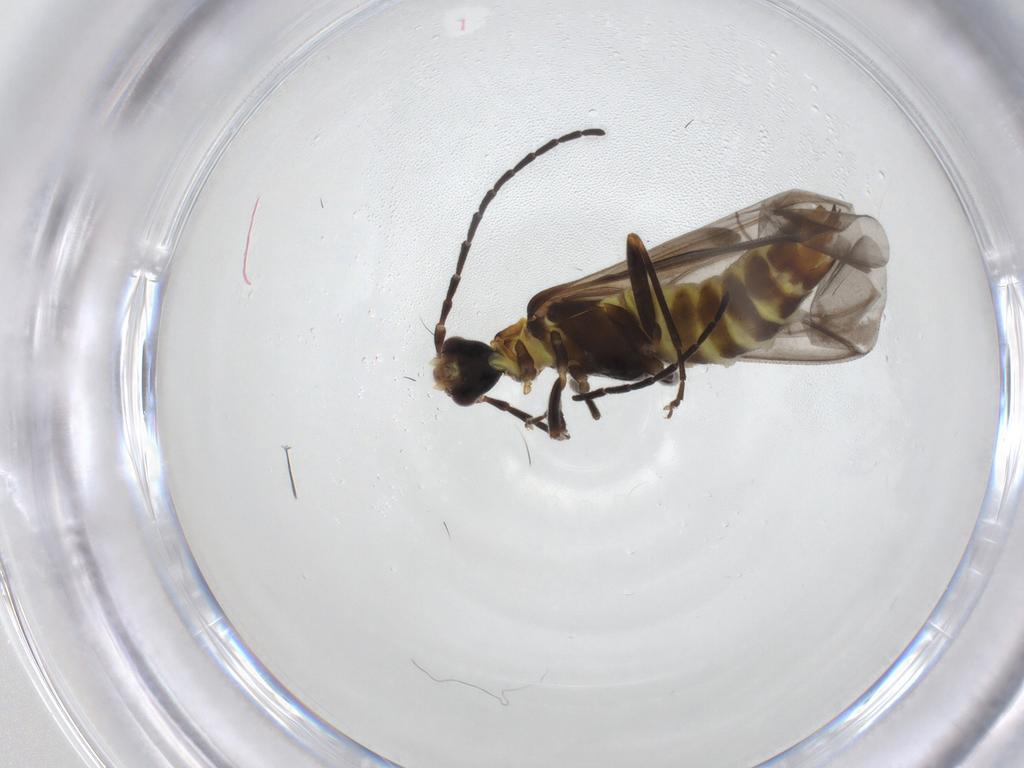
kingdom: Animalia
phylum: Arthropoda
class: Insecta
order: Coleoptera
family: Cantharidae
